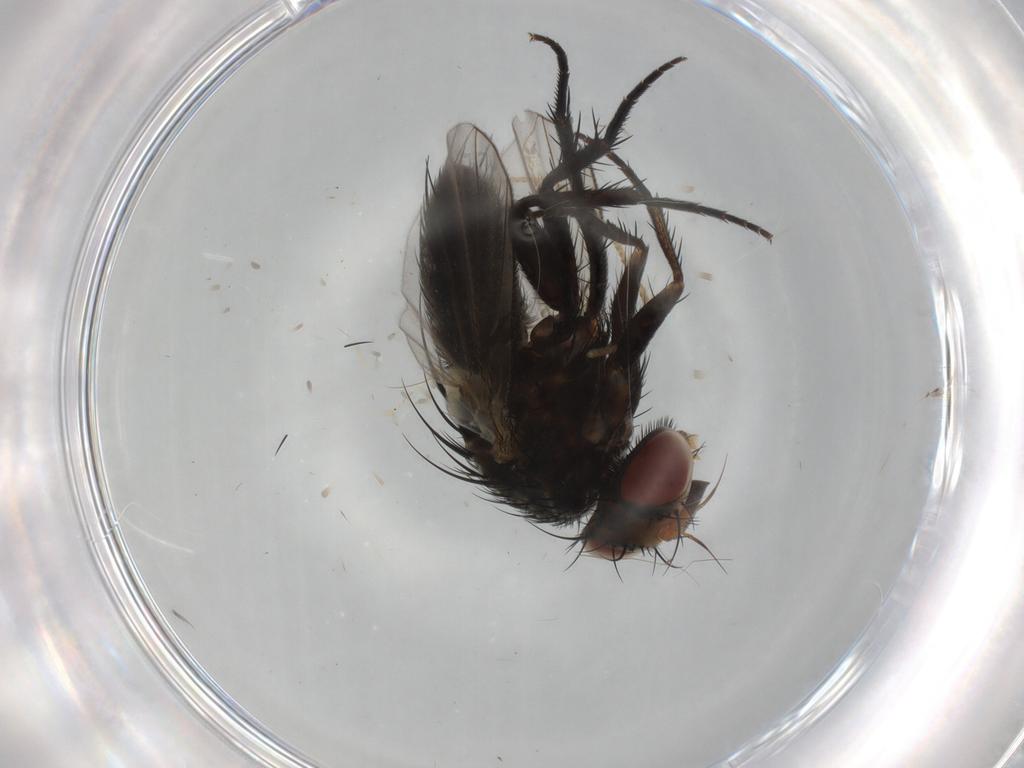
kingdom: Animalia
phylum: Arthropoda
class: Insecta
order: Diptera
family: Tachinidae
